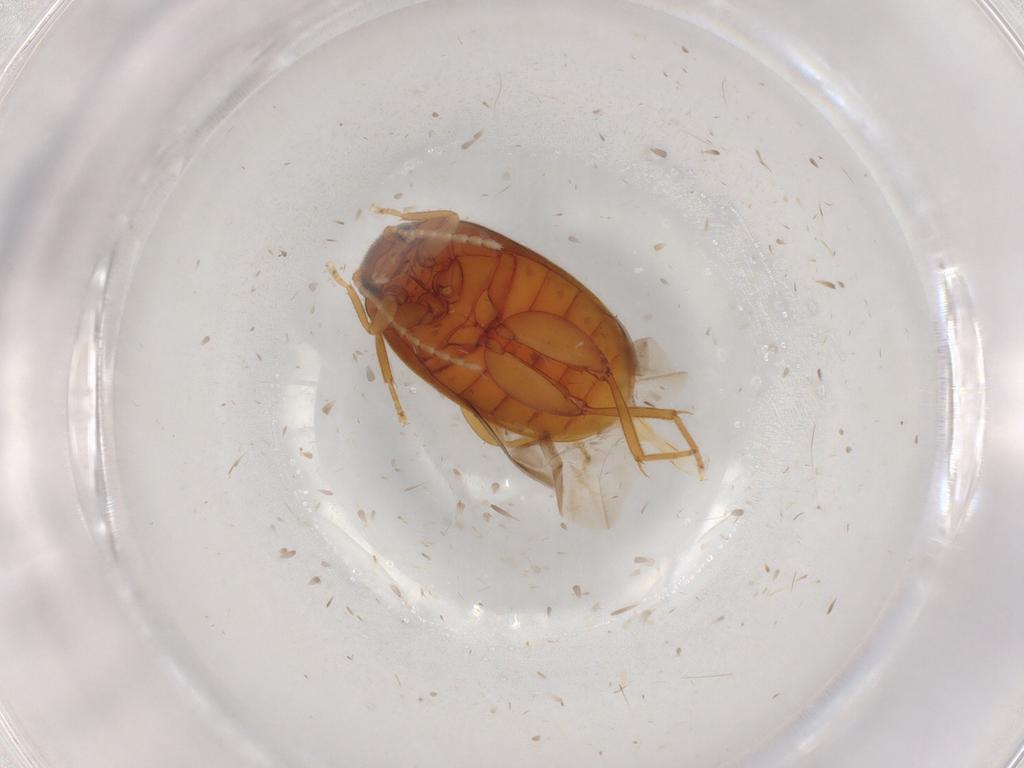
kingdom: Animalia
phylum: Arthropoda
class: Insecta
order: Coleoptera
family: Scirtidae
